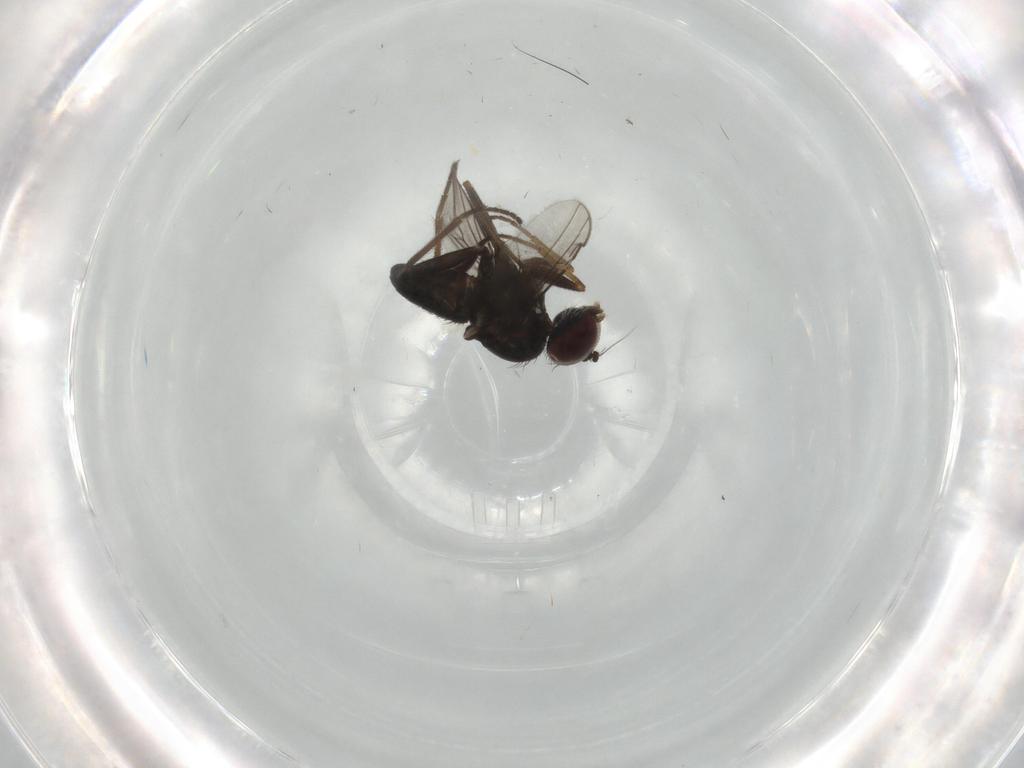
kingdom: Animalia
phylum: Arthropoda
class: Insecta
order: Diptera
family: Dolichopodidae
